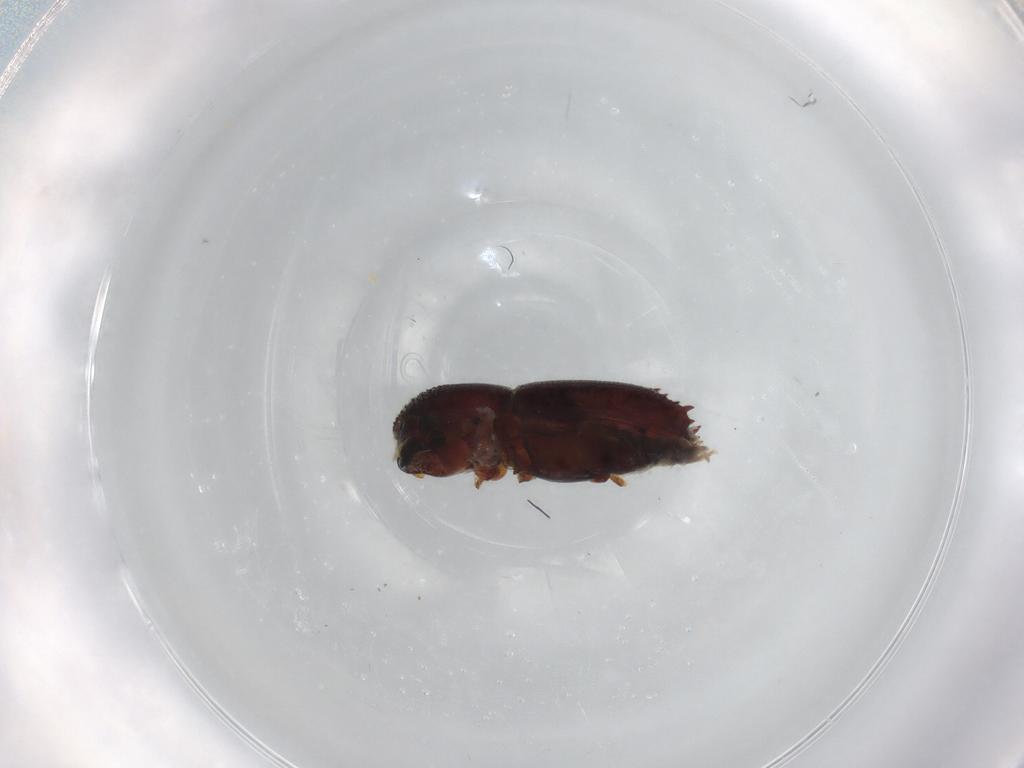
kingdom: Animalia
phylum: Arthropoda
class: Insecta
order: Coleoptera
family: Curculionidae
